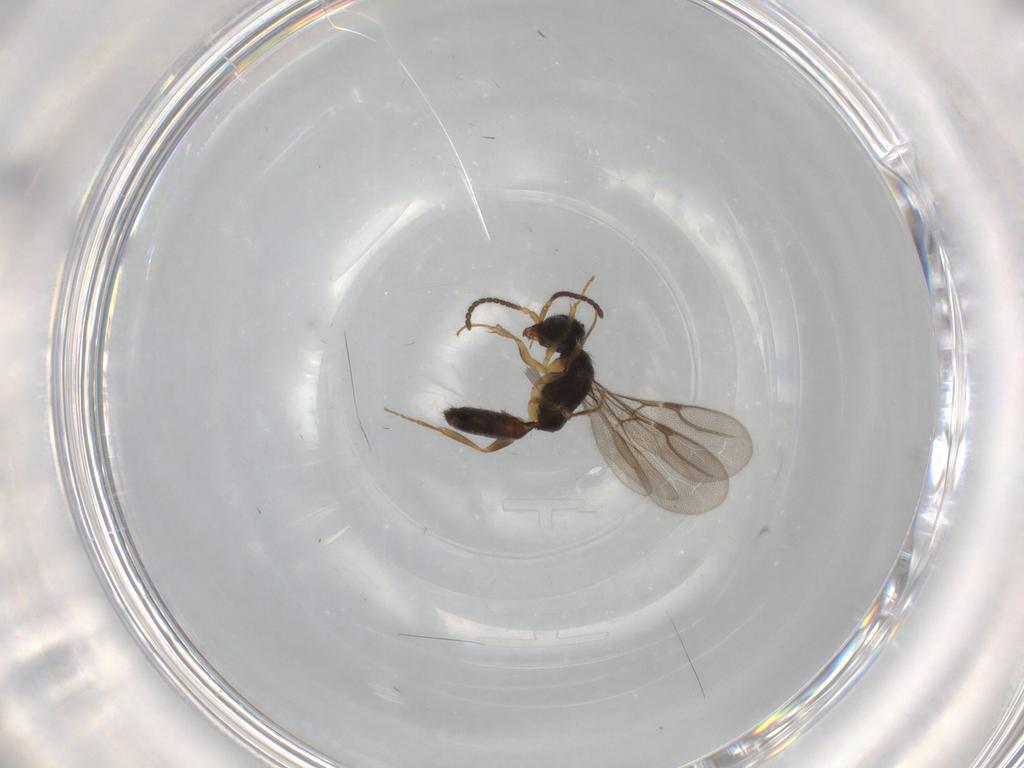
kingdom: Animalia
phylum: Arthropoda
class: Insecta
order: Hymenoptera
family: Bethylidae
